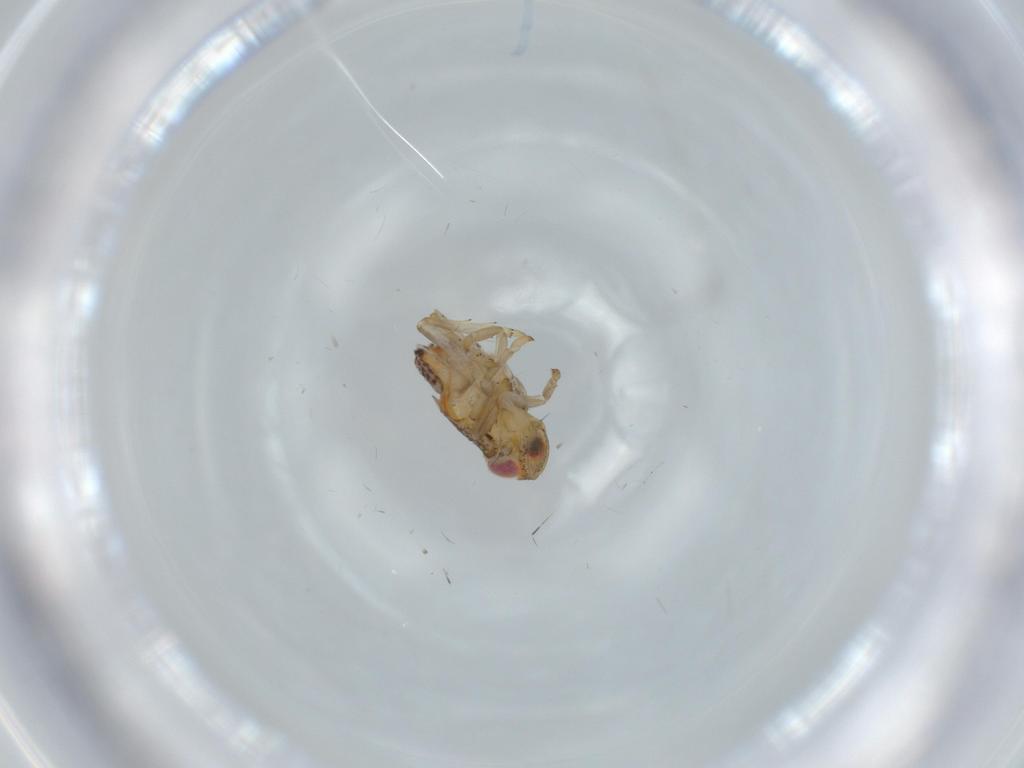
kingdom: Animalia
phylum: Arthropoda
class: Insecta
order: Hemiptera
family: Issidae
